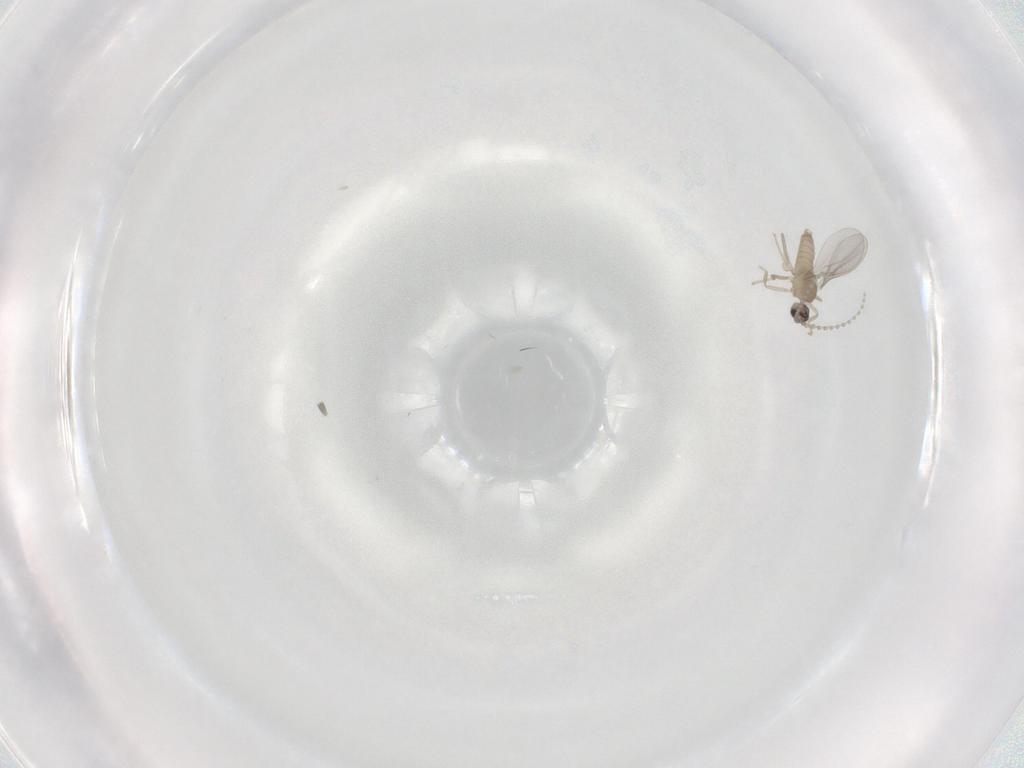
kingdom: Animalia
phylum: Arthropoda
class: Insecta
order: Diptera
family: Cecidomyiidae
